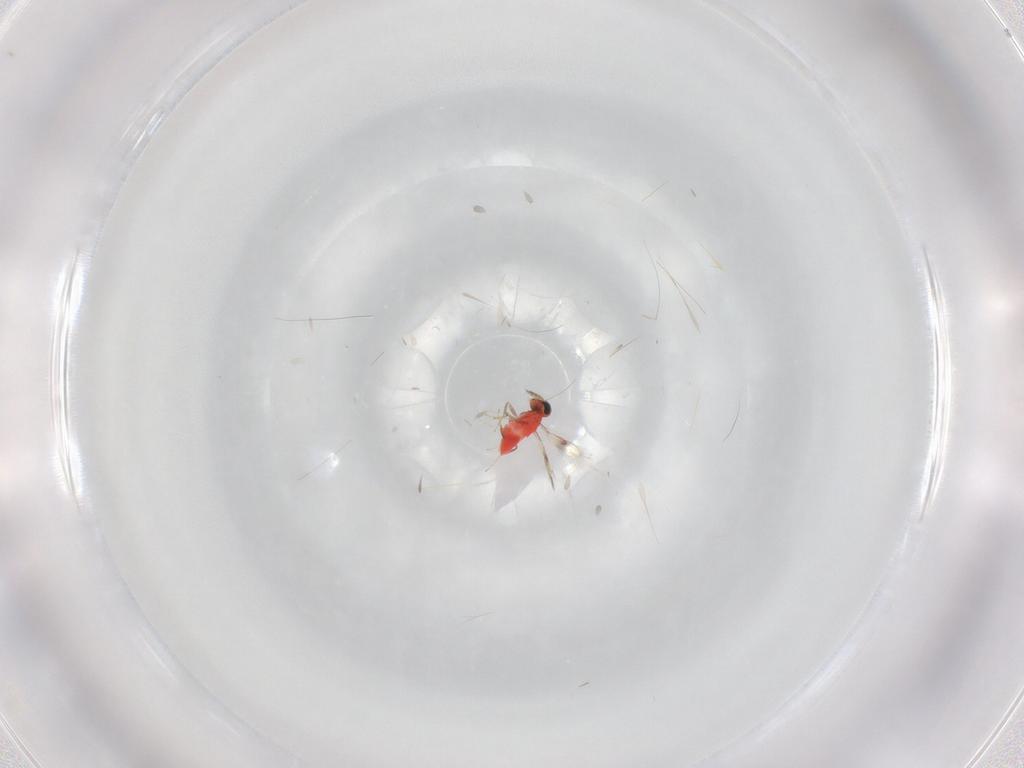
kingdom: Animalia
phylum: Arthropoda
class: Insecta
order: Hymenoptera
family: Trichogrammatidae
